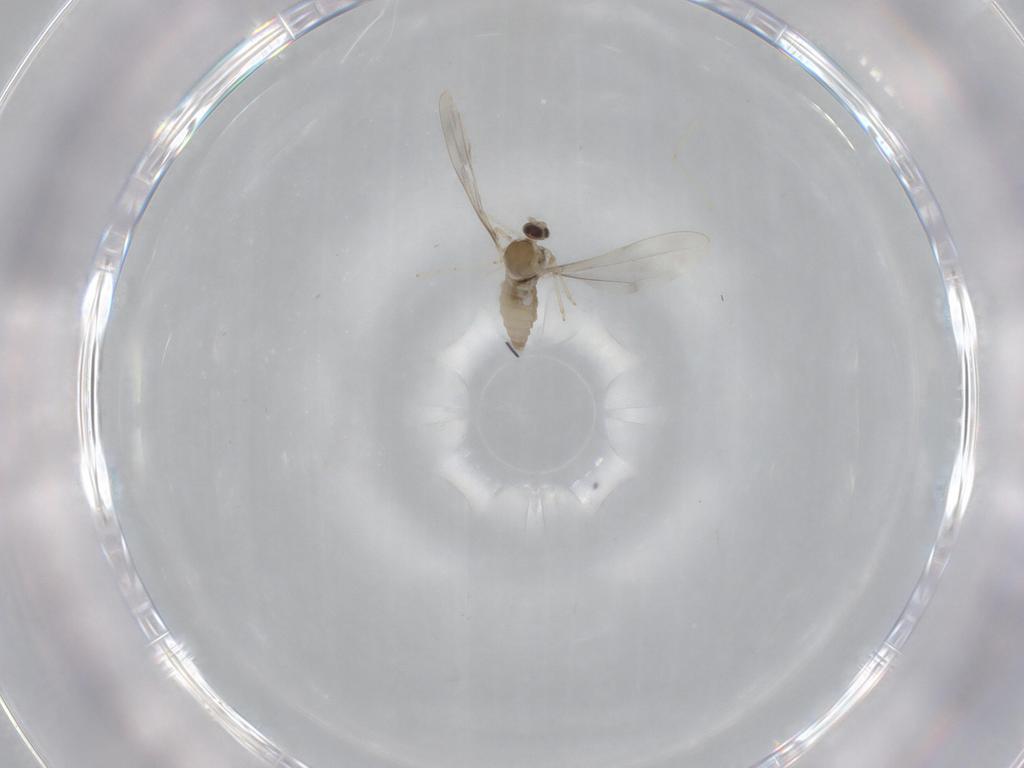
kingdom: Animalia
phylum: Arthropoda
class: Insecta
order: Diptera
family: Cecidomyiidae
